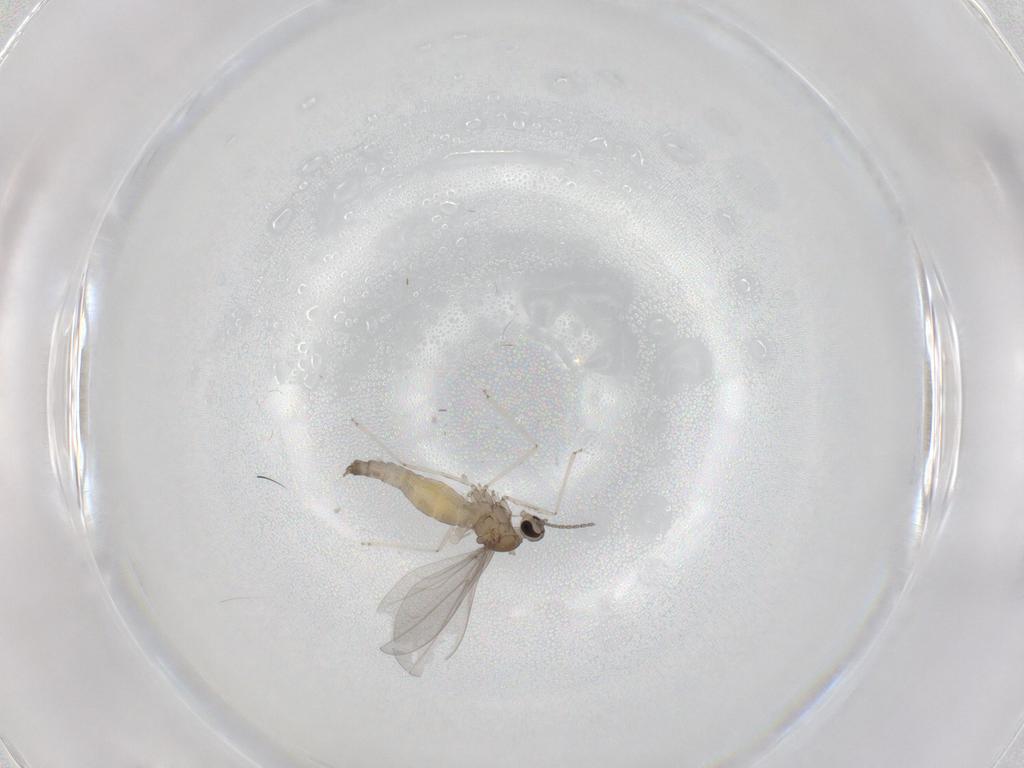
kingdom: Animalia
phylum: Arthropoda
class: Insecta
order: Diptera
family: Cecidomyiidae
